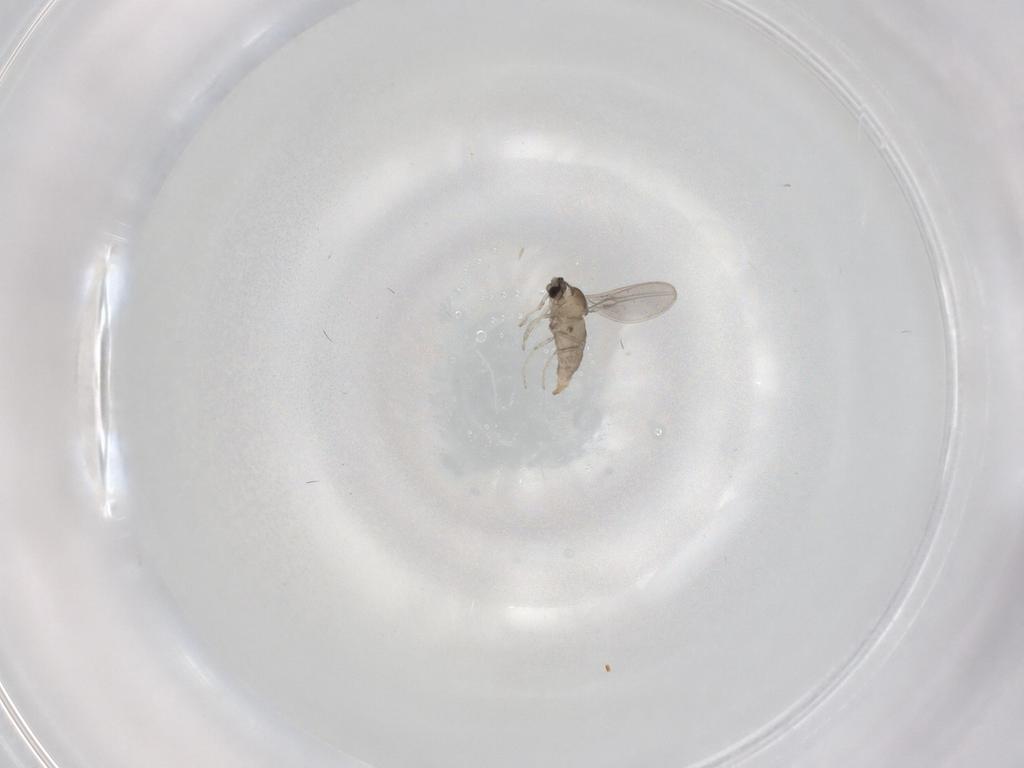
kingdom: Animalia
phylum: Arthropoda
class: Insecta
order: Diptera
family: Cecidomyiidae
